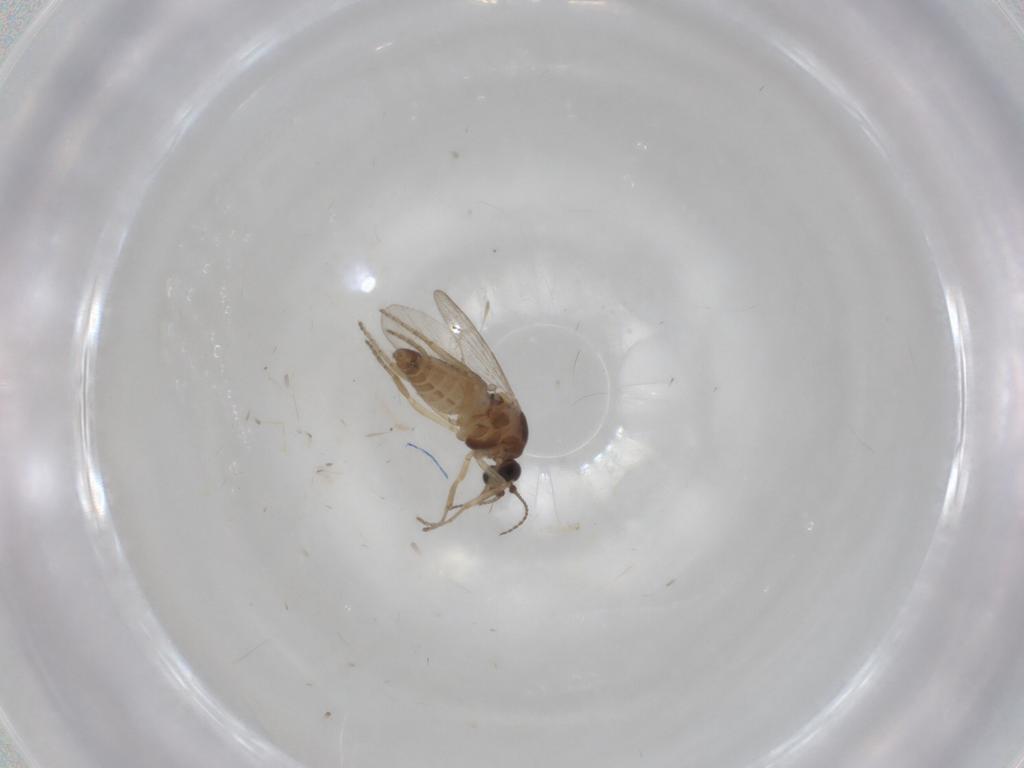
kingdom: Animalia
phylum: Arthropoda
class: Insecta
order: Diptera
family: Ceratopogonidae
